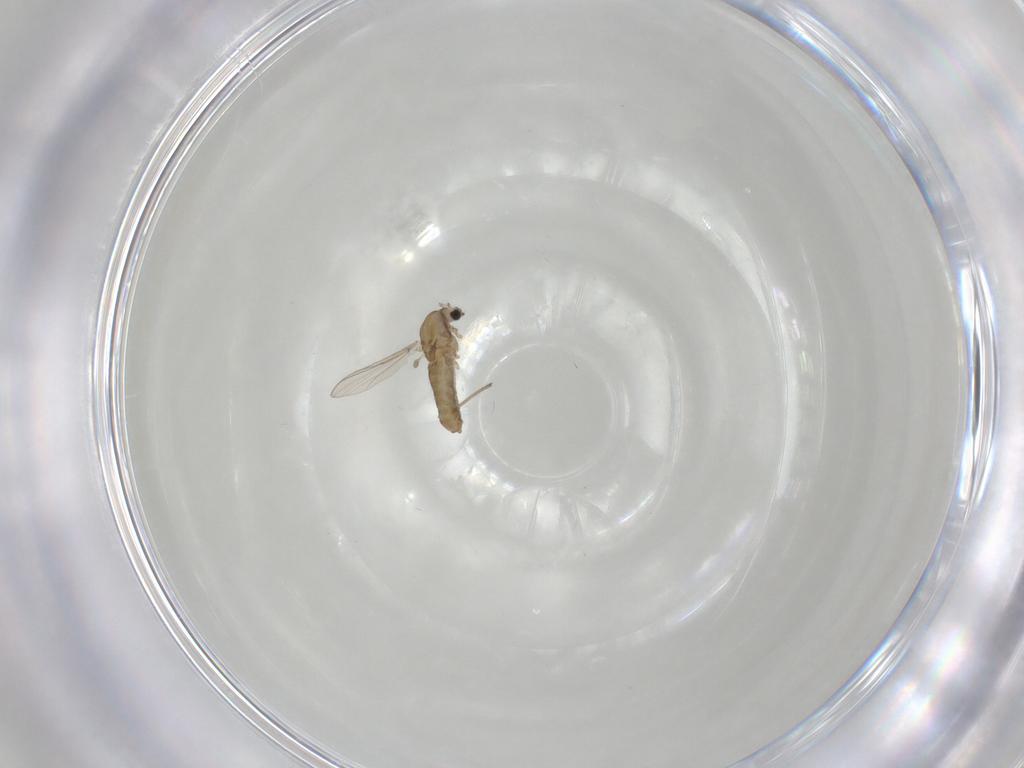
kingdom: Animalia
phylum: Arthropoda
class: Insecta
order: Diptera
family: Chironomidae
